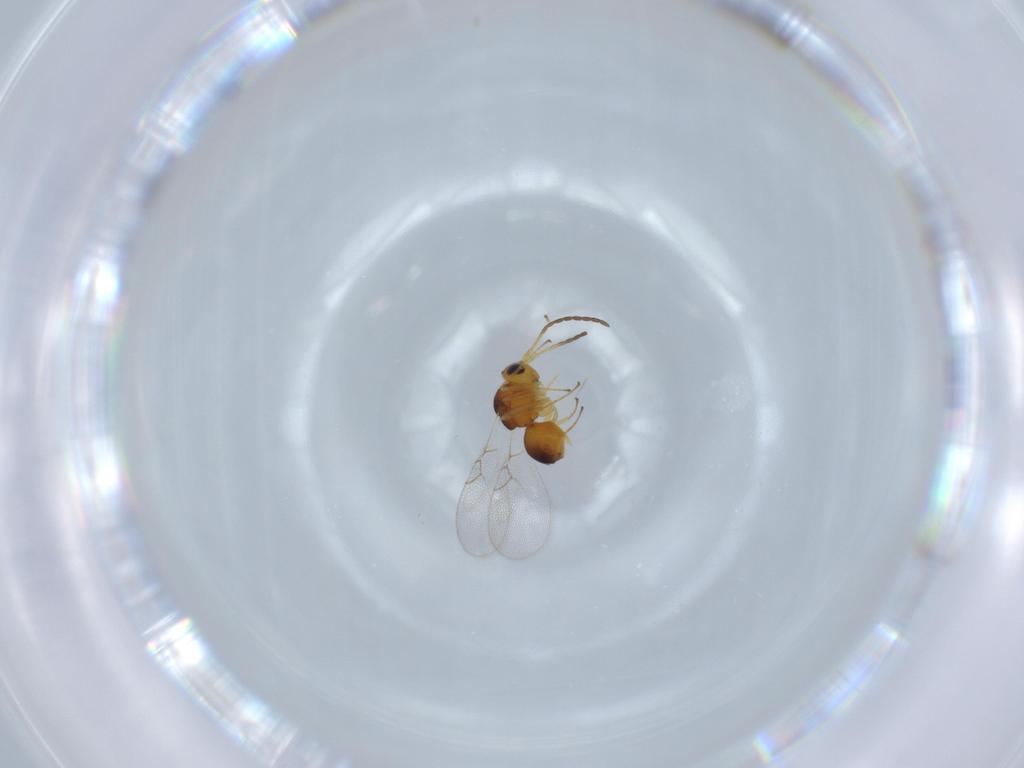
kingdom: Animalia
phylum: Arthropoda
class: Insecta
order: Hymenoptera
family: Figitidae
